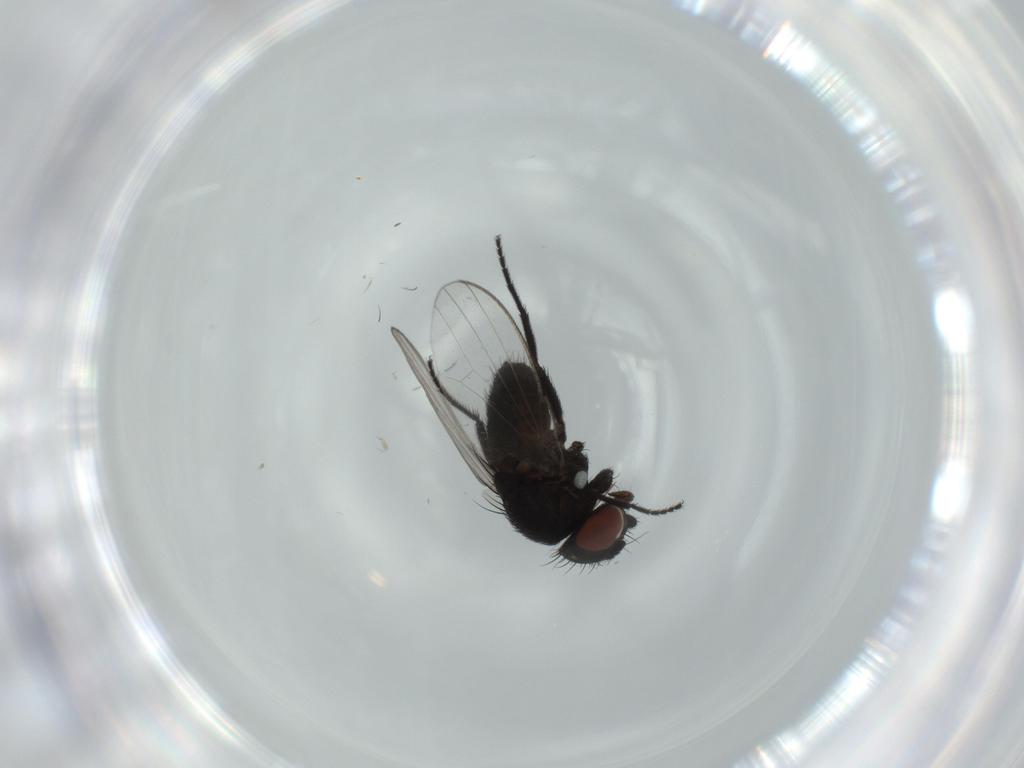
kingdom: Animalia
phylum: Arthropoda
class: Insecta
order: Diptera
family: Milichiidae
